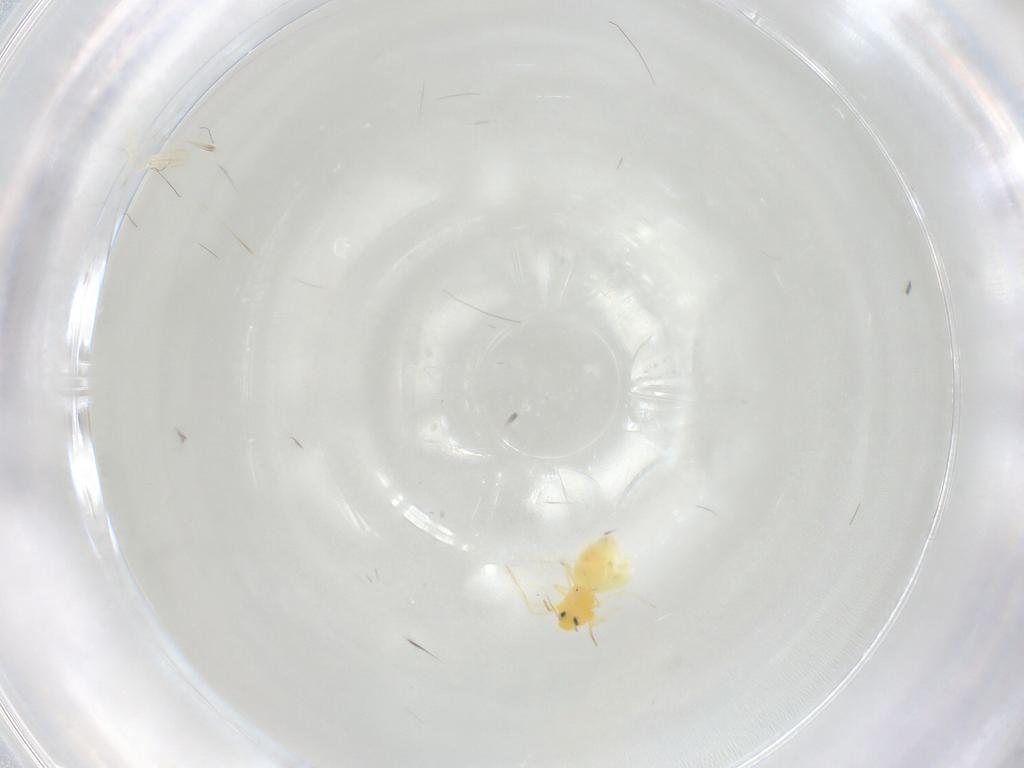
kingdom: Animalia
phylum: Arthropoda
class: Insecta
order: Hemiptera
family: Aleyrodidae
